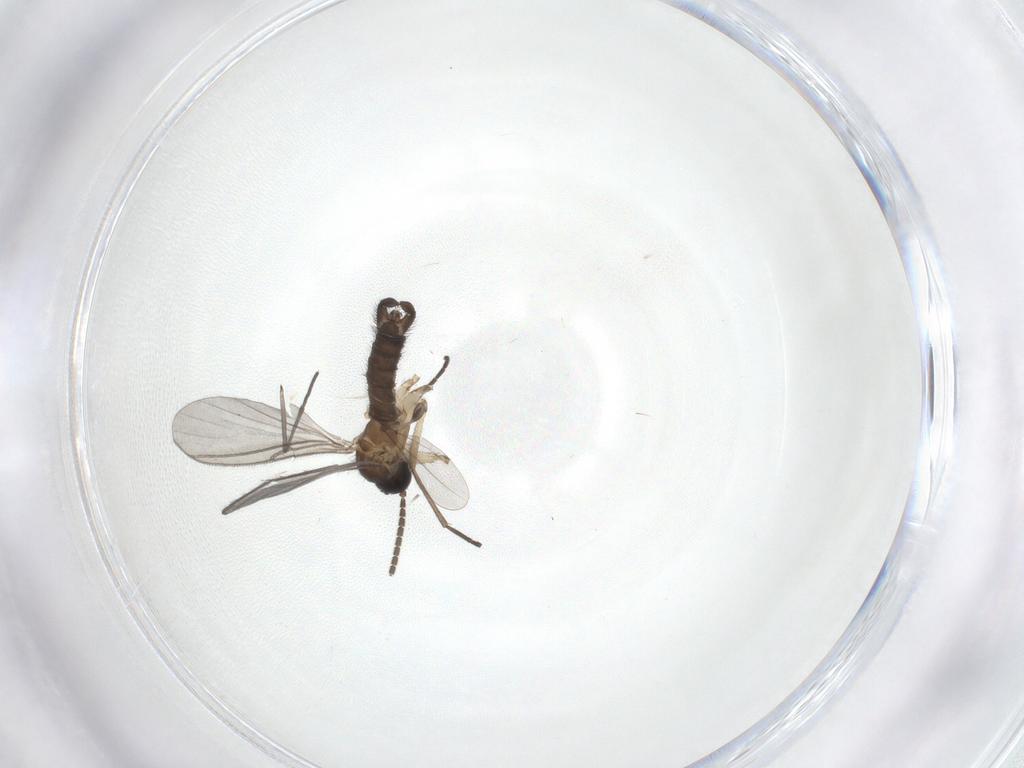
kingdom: Animalia
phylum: Arthropoda
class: Insecta
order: Diptera
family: Sciaridae
